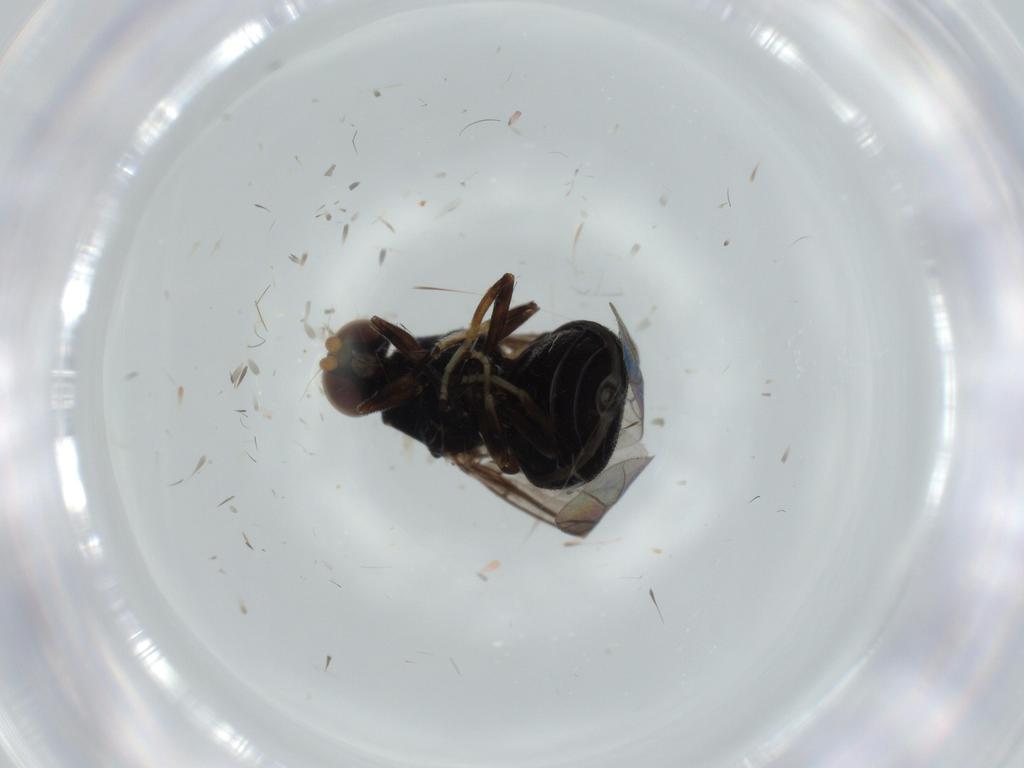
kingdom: Animalia
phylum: Arthropoda
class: Insecta
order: Diptera
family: Stratiomyidae
